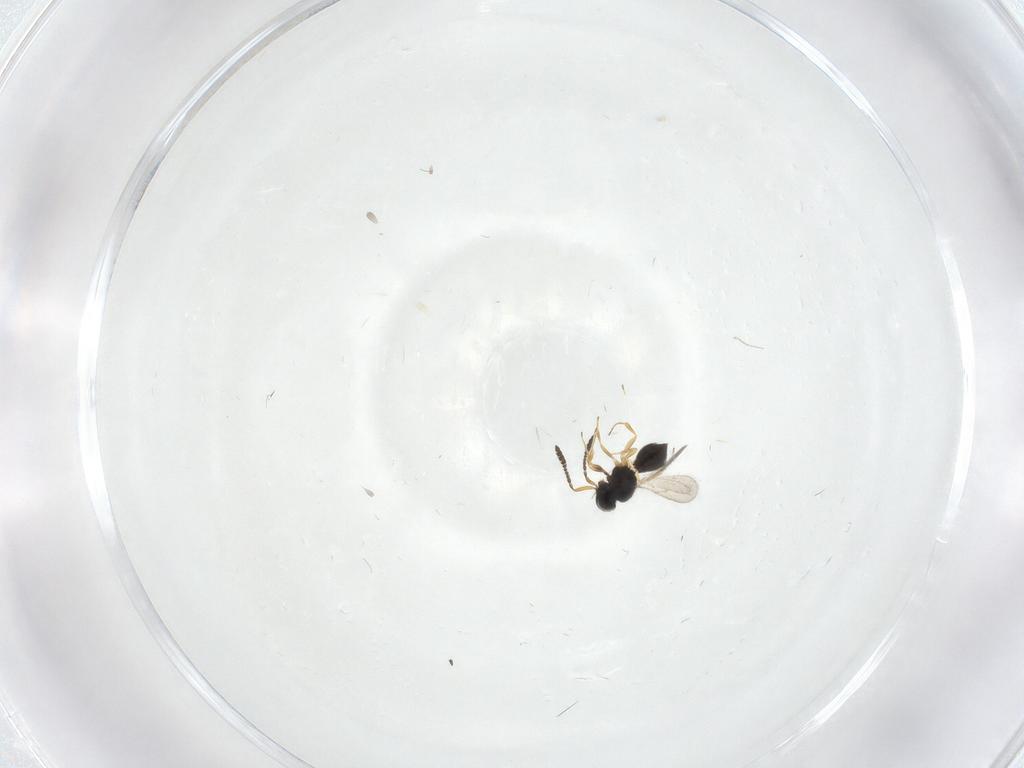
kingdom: Animalia
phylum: Arthropoda
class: Insecta
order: Hymenoptera
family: Scelionidae
